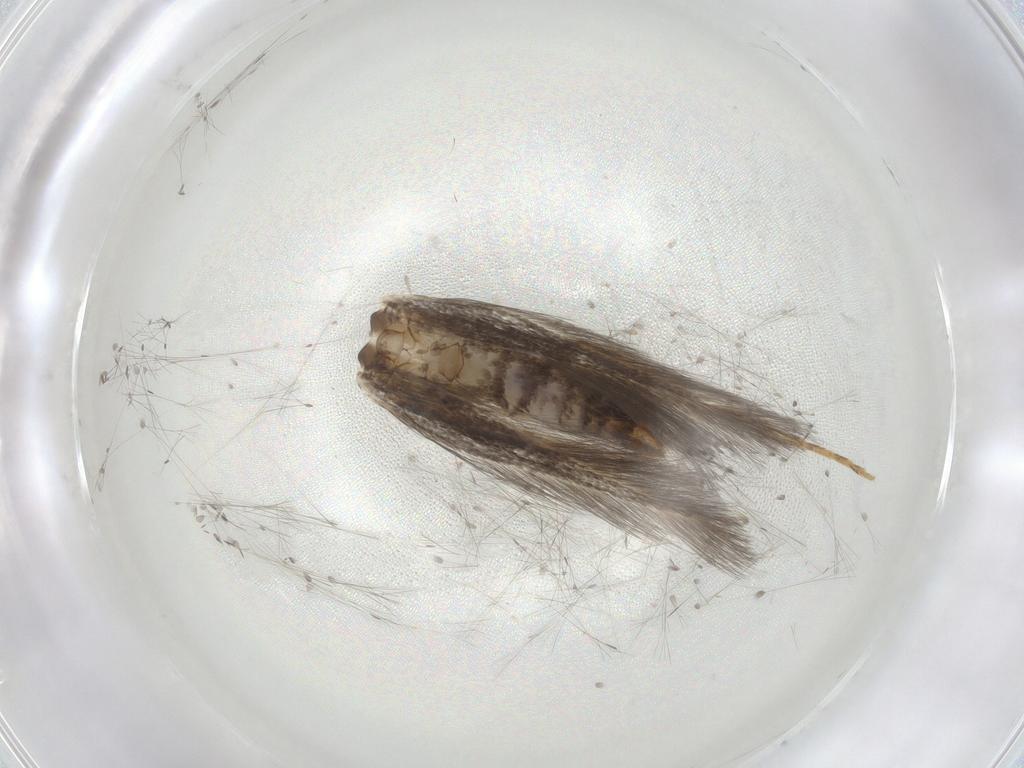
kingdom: Animalia
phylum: Arthropoda
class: Insecta
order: Lepidoptera
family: Elachistidae
